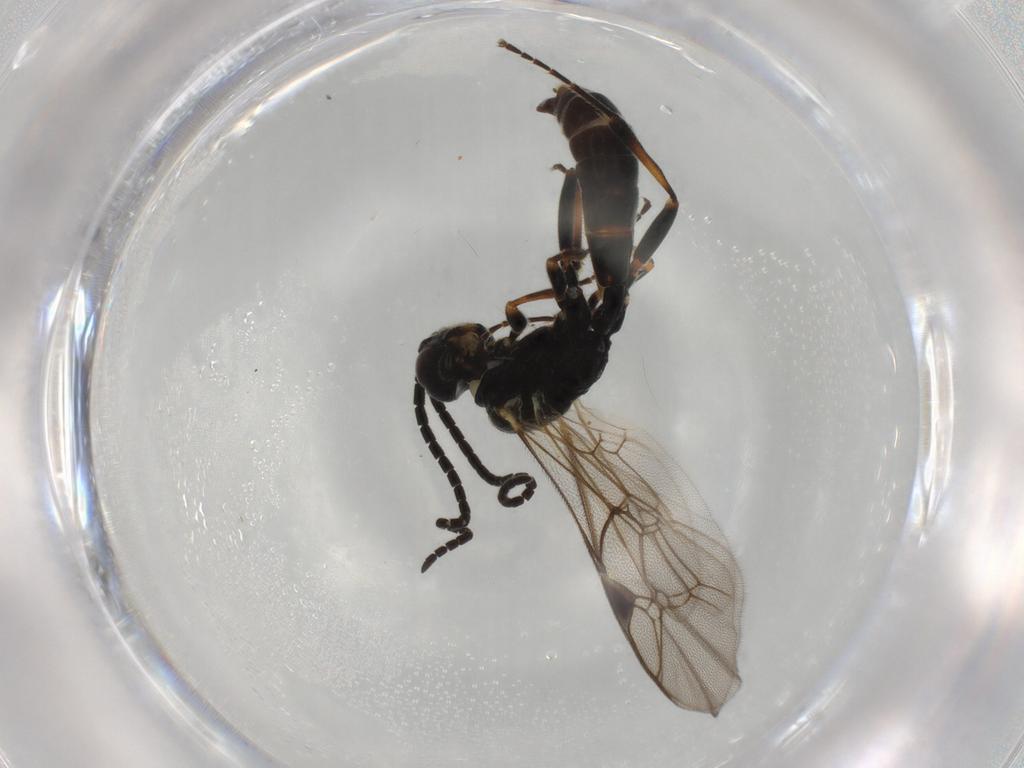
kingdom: Animalia
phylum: Arthropoda
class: Insecta
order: Hymenoptera
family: Ichneumonidae
